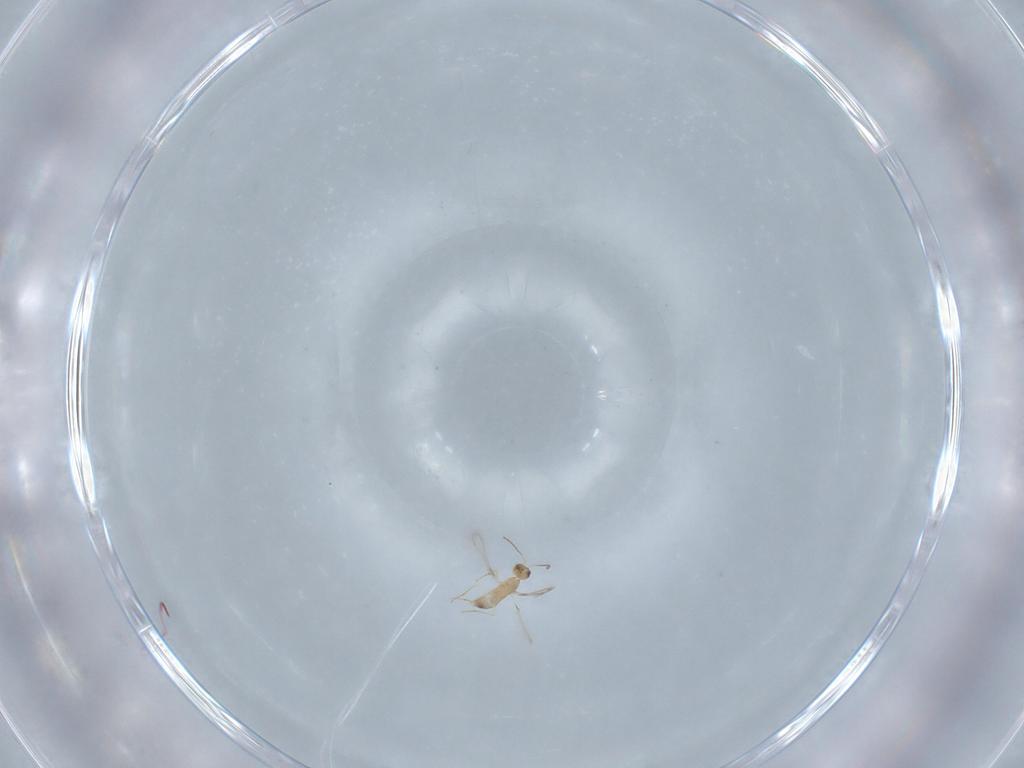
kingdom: Animalia
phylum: Arthropoda
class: Insecta
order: Hymenoptera
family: Mymaridae
